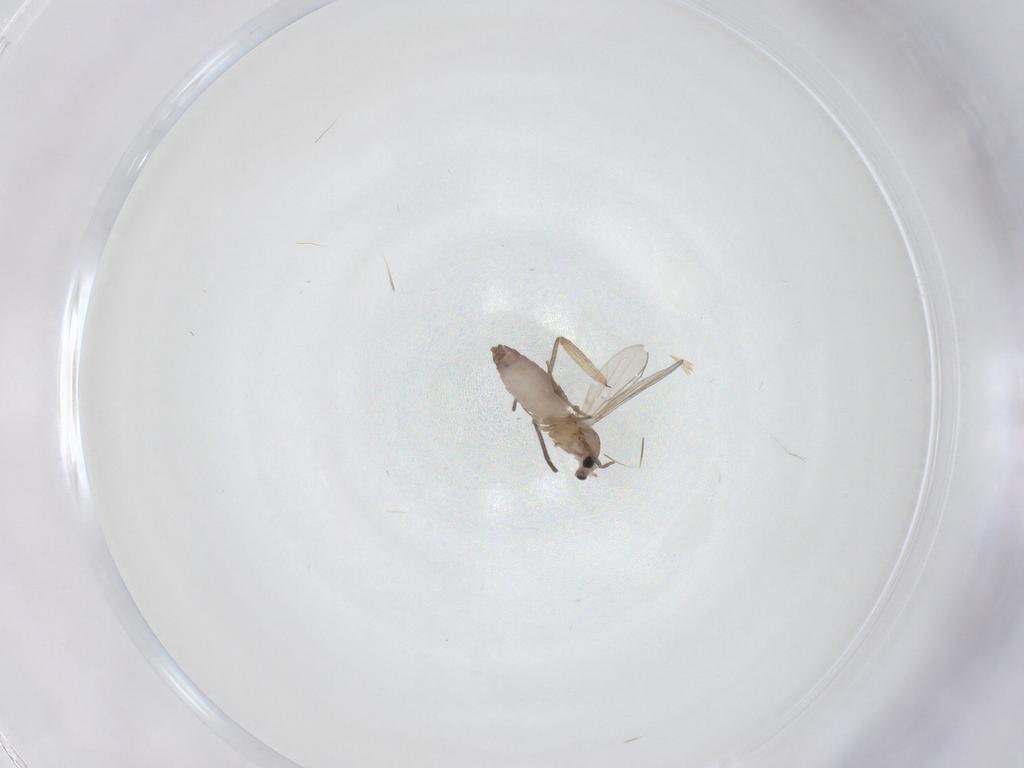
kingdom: Animalia
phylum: Arthropoda
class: Insecta
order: Diptera
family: Chironomidae
